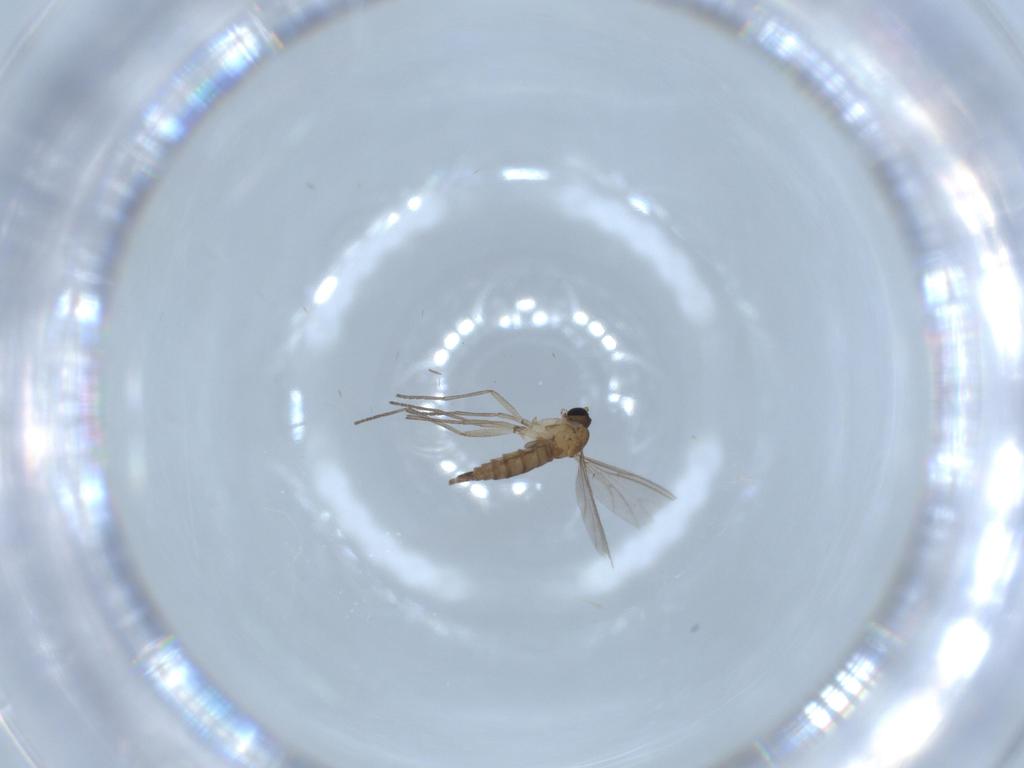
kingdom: Animalia
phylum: Arthropoda
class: Insecta
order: Diptera
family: Sciaridae
